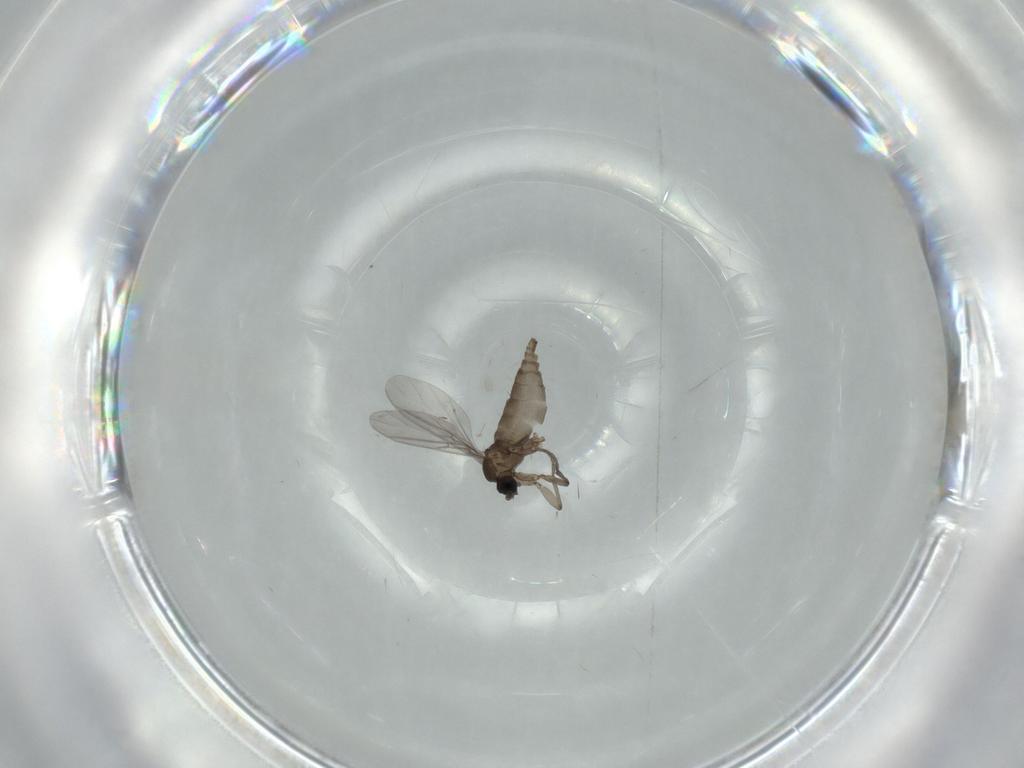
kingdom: Animalia
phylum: Arthropoda
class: Insecta
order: Diptera
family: Sciaridae
